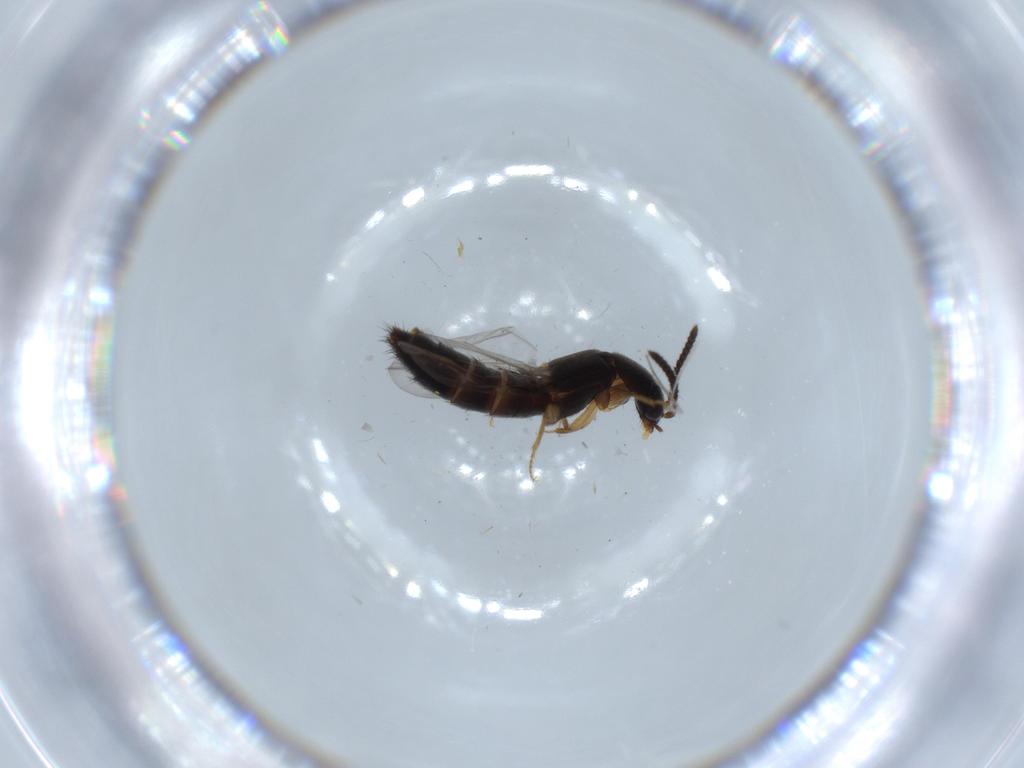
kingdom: Animalia
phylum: Arthropoda
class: Insecta
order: Coleoptera
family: Staphylinidae
